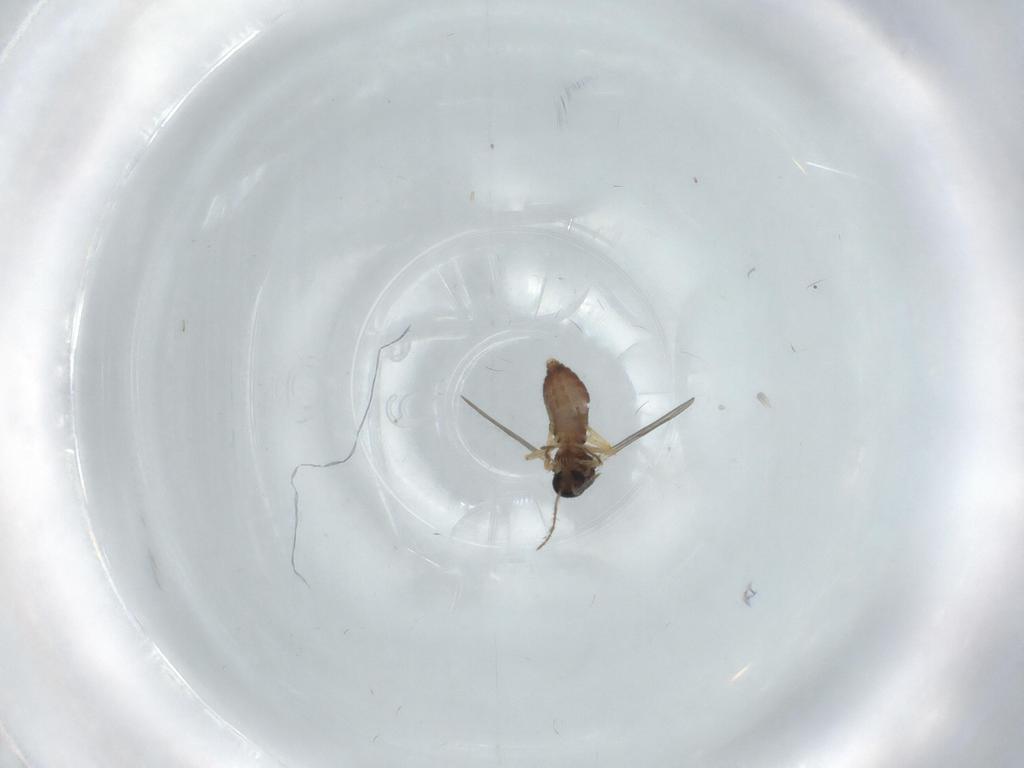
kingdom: Animalia
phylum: Arthropoda
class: Insecta
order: Diptera
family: Ceratopogonidae
